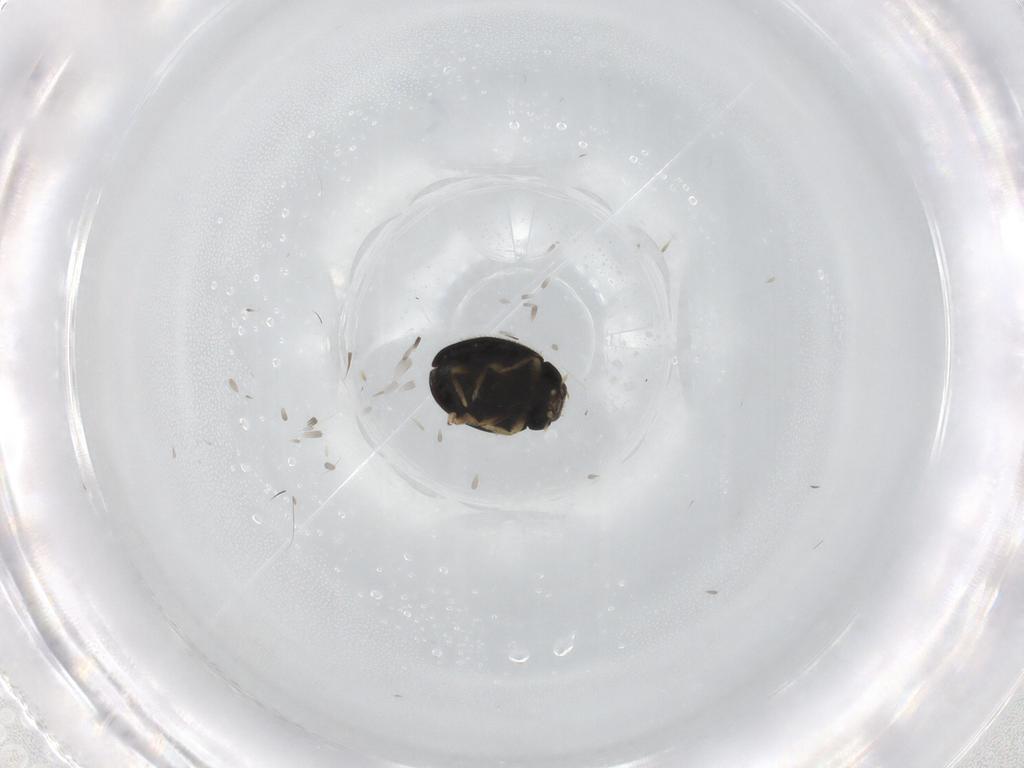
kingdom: Animalia
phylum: Arthropoda
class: Insecta
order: Coleoptera
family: Coccinellidae
